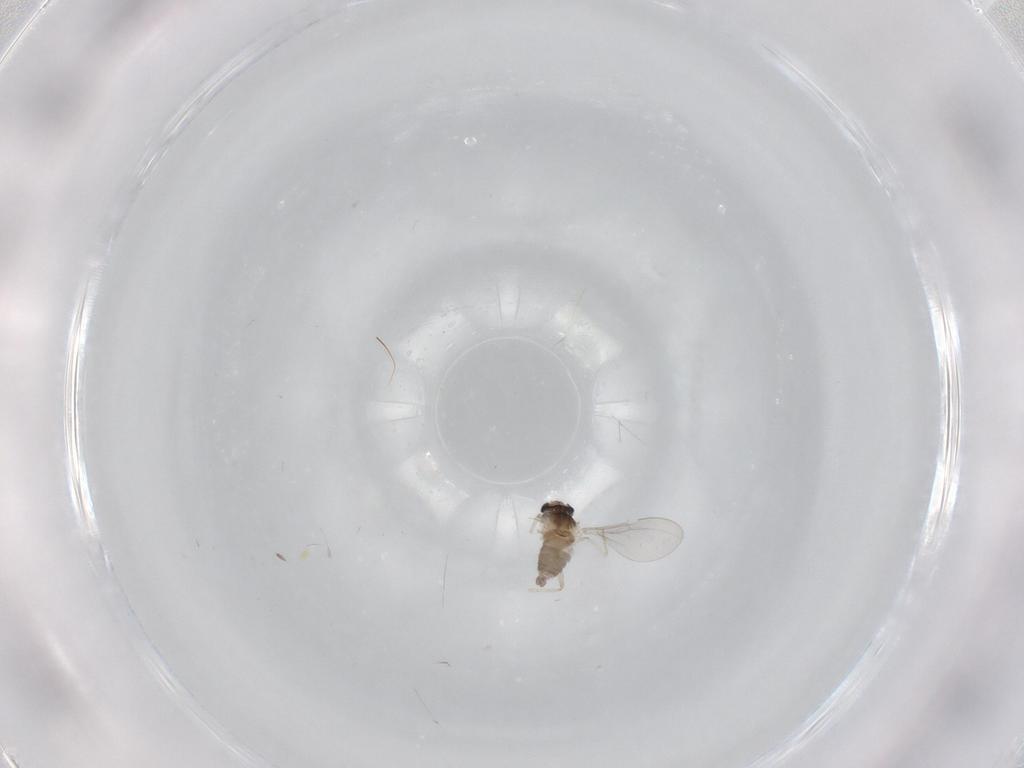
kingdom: Animalia
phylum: Arthropoda
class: Insecta
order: Diptera
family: Cecidomyiidae
